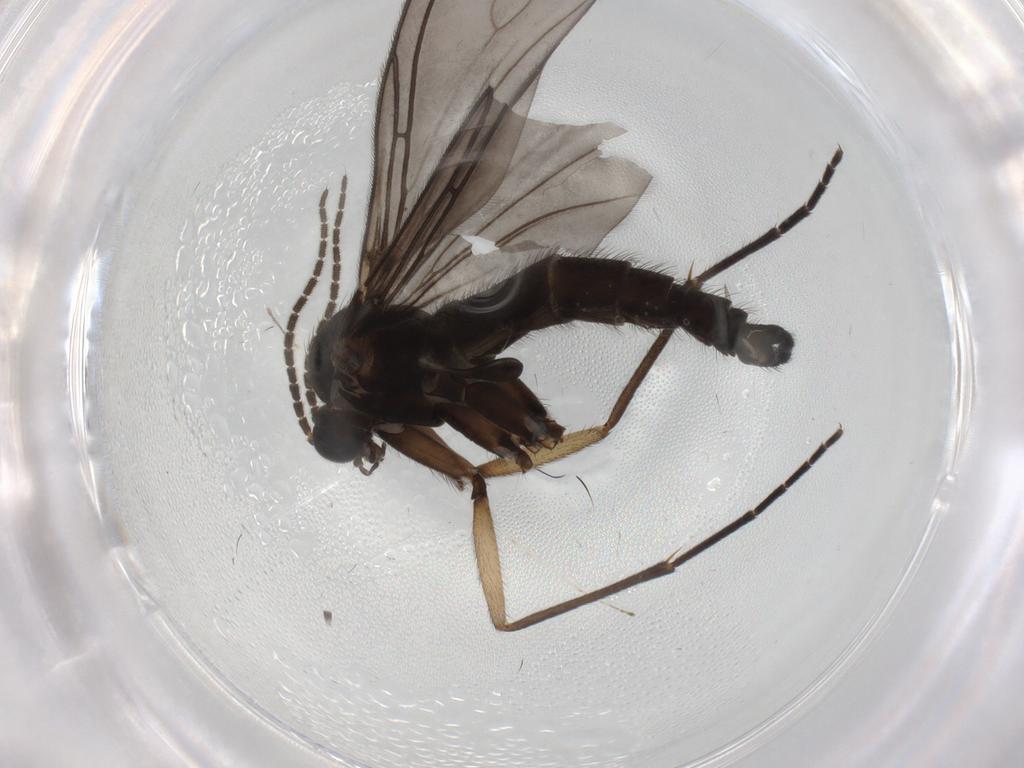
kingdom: Animalia
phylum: Arthropoda
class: Insecta
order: Diptera
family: Cecidomyiidae
